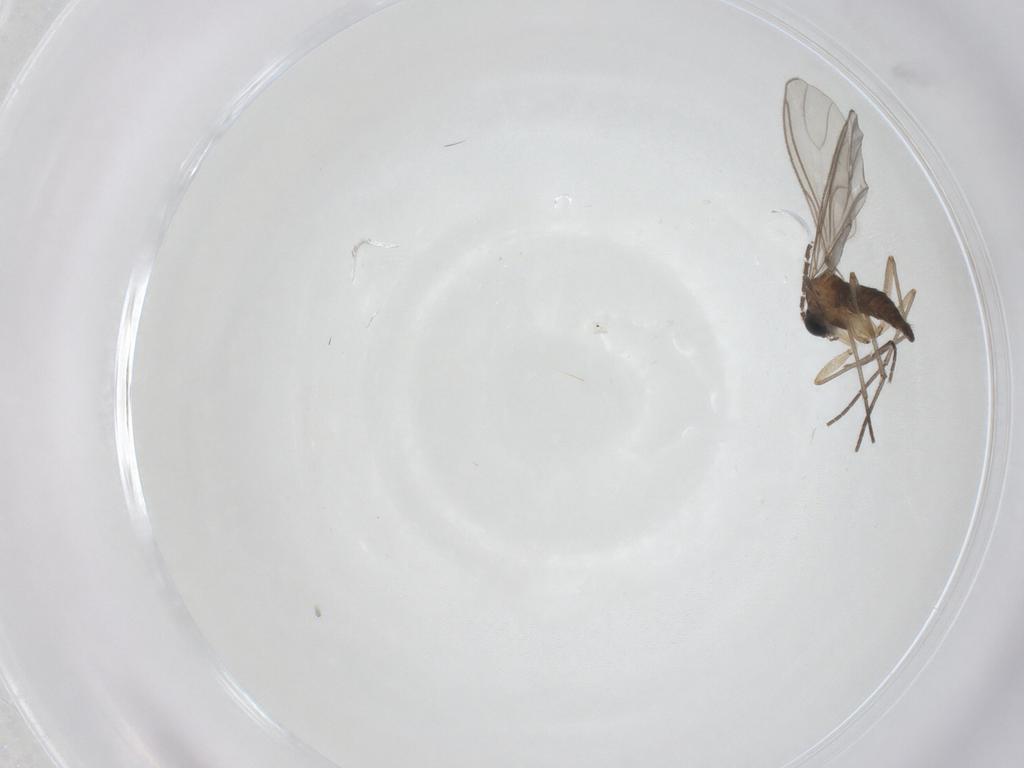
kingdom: Animalia
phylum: Arthropoda
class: Insecta
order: Diptera
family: Sciaridae
